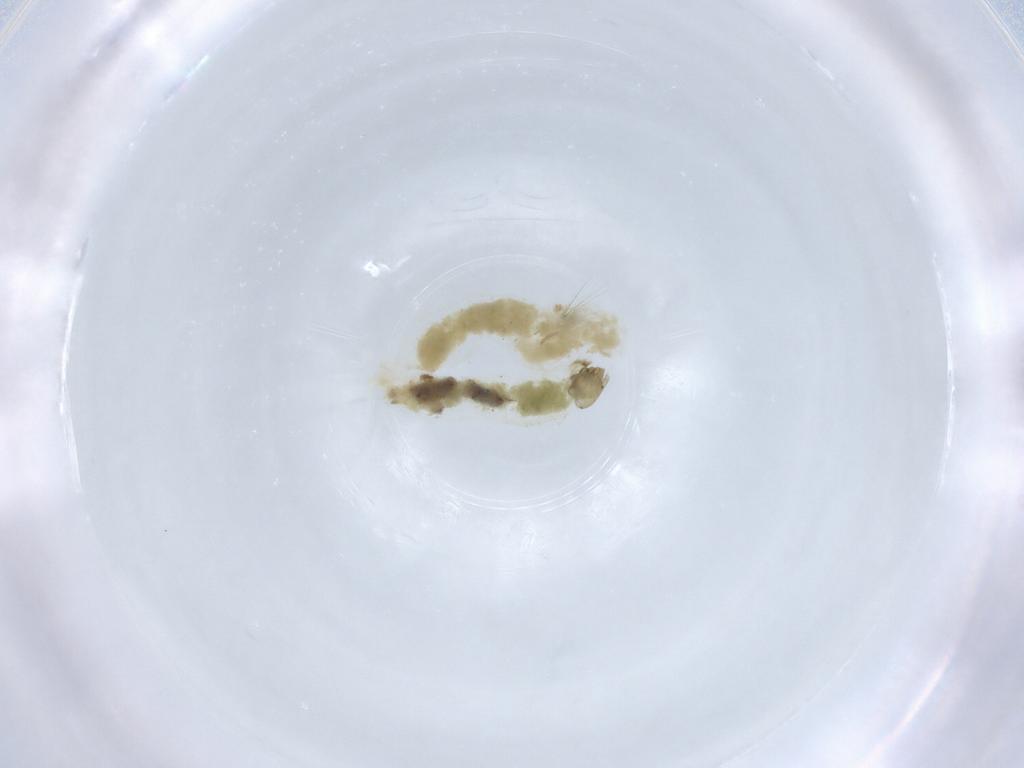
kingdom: Animalia
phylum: Arthropoda
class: Insecta
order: Diptera
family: Chironomidae
